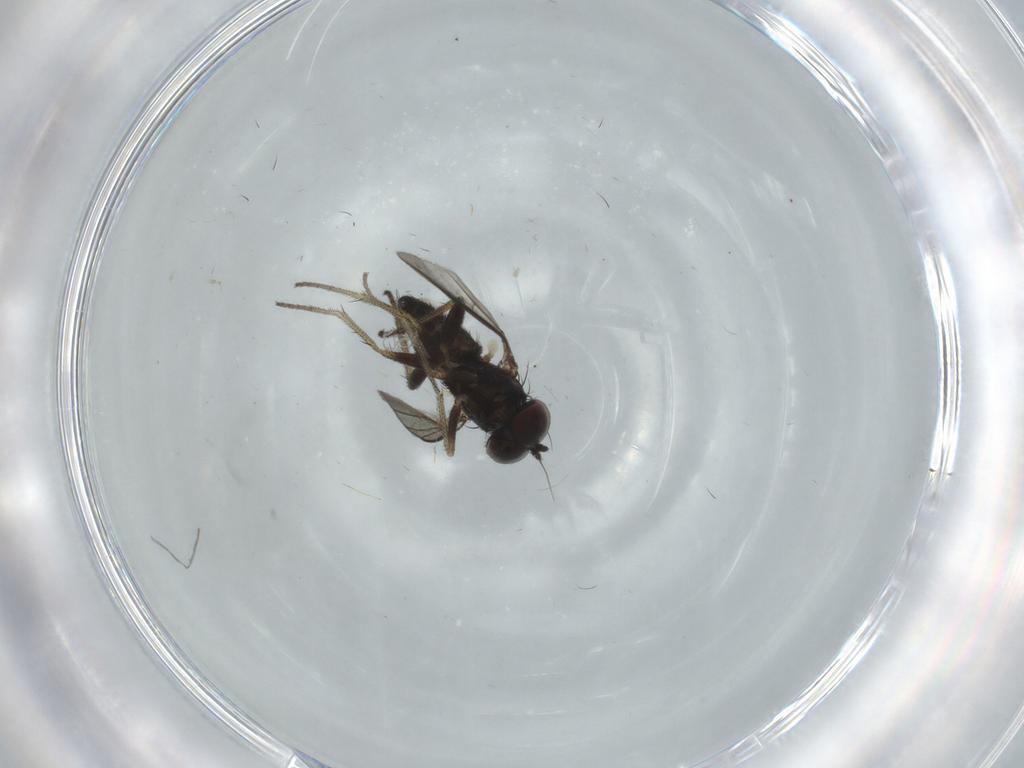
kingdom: Animalia
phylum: Arthropoda
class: Insecta
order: Diptera
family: Dolichopodidae
